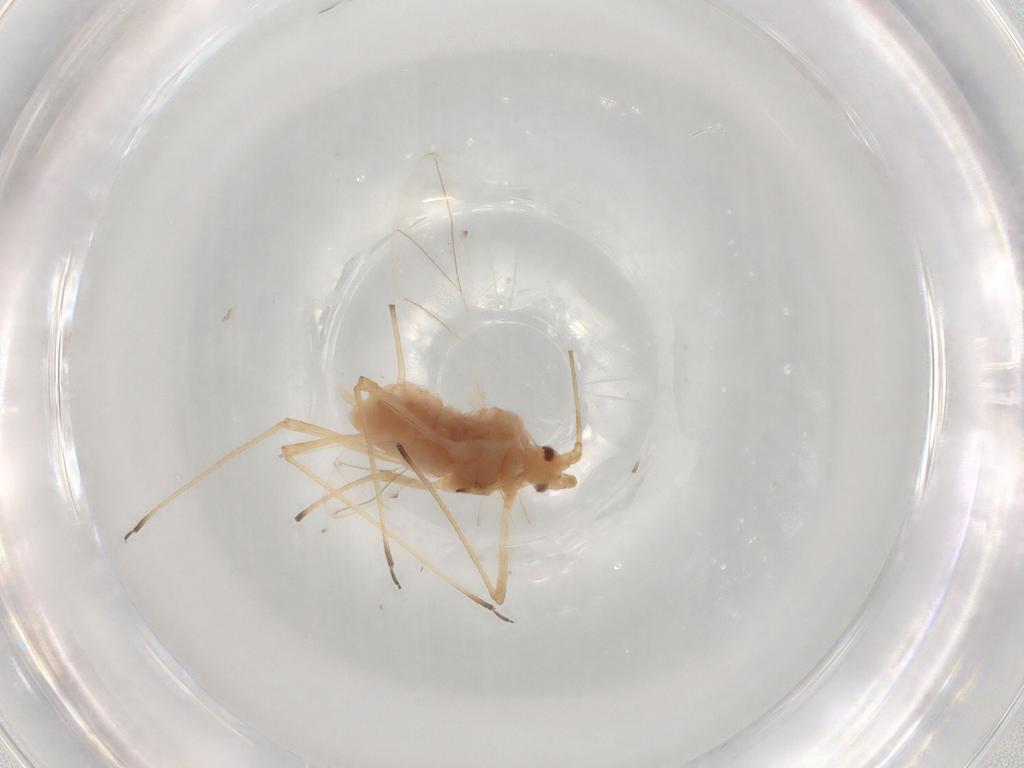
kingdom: Animalia
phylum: Arthropoda
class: Insecta
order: Hemiptera
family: Aphididae
